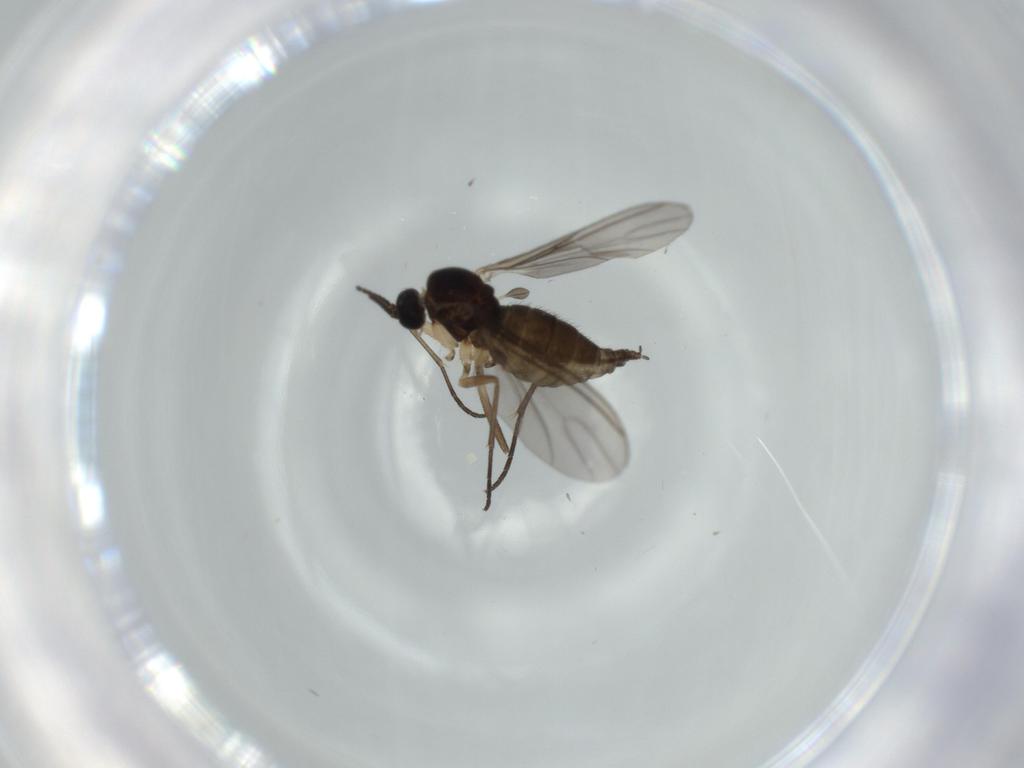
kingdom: Animalia
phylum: Arthropoda
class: Insecta
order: Diptera
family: Sciaridae
